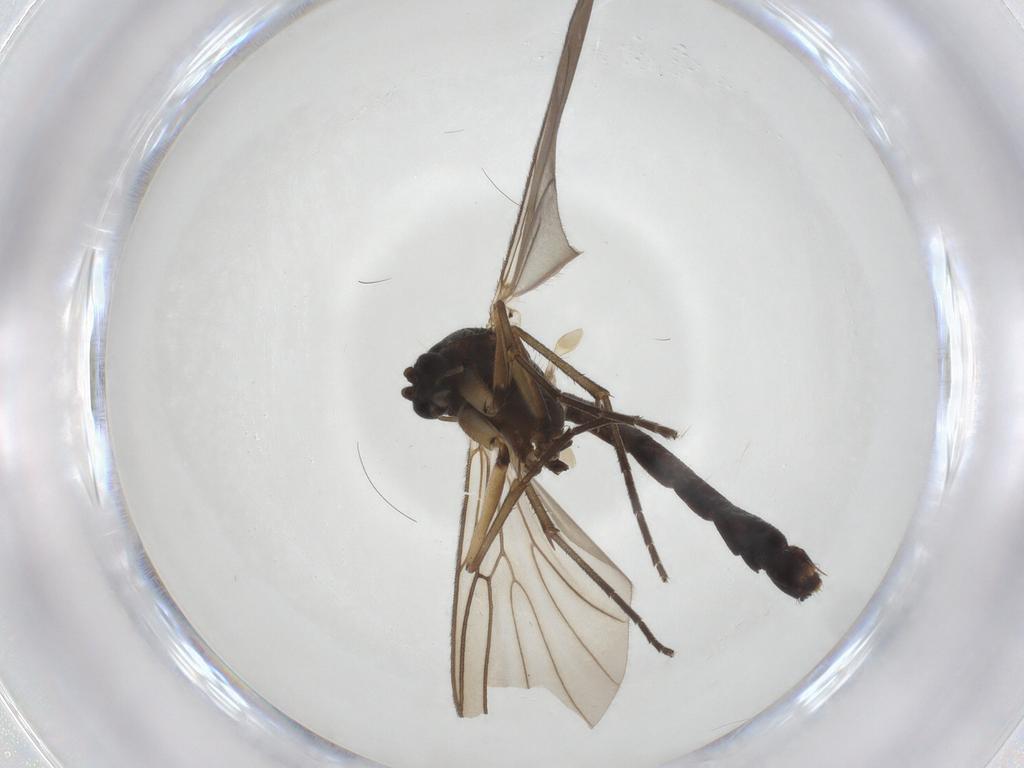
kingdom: Animalia
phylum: Arthropoda
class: Insecta
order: Diptera
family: Mycetophilidae
